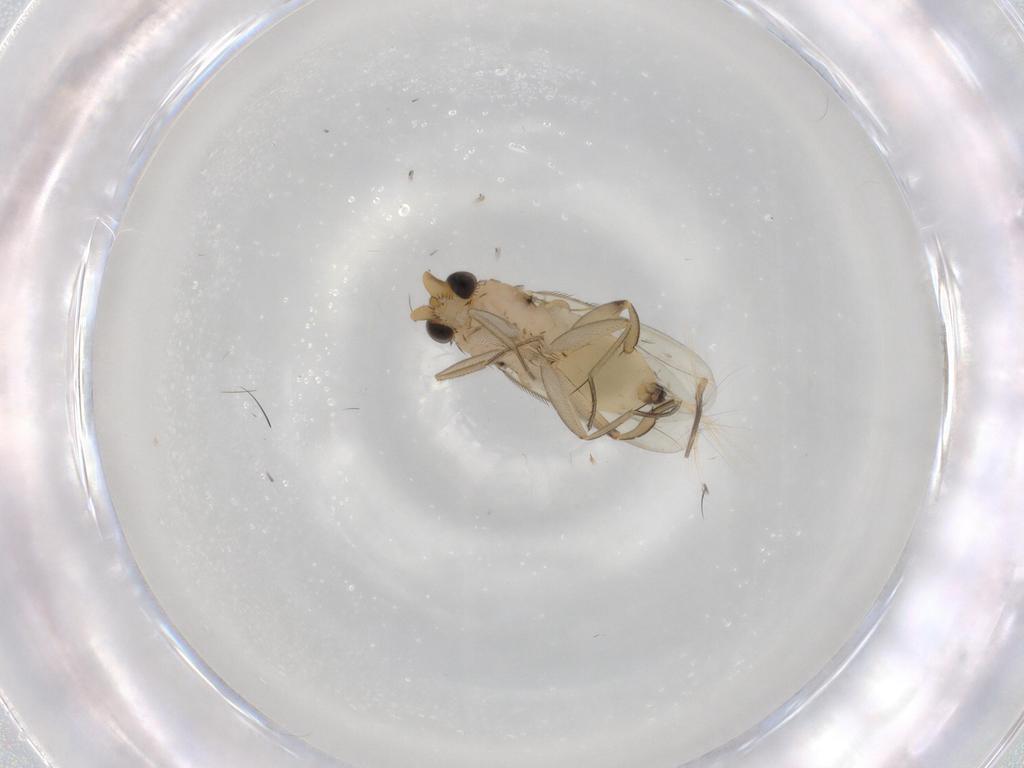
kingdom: Animalia
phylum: Arthropoda
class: Insecta
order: Diptera
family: Phoridae
